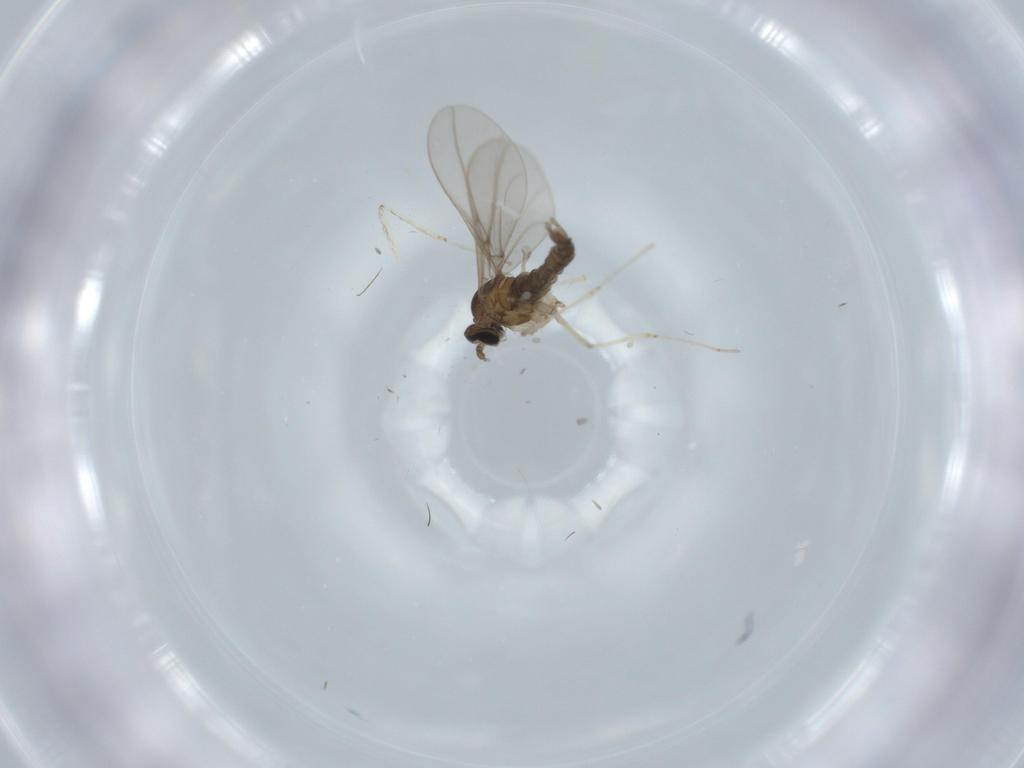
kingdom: Animalia
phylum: Arthropoda
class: Insecta
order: Diptera
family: Cecidomyiidae
